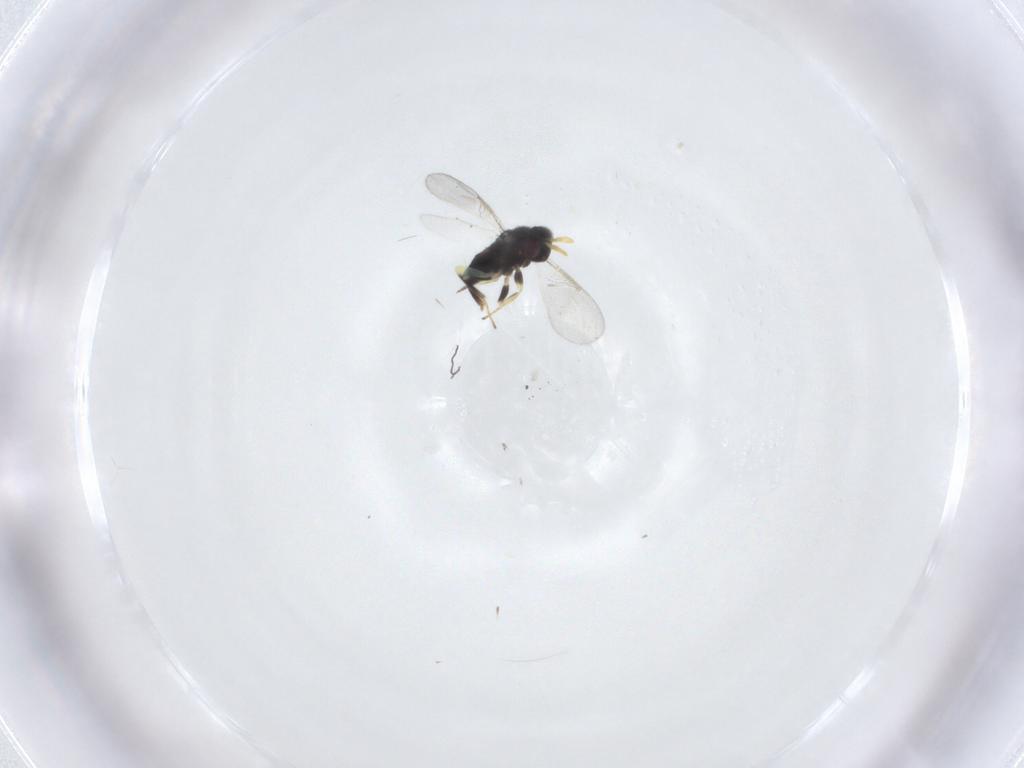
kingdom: Animalia
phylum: Arthropoda
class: Insecta
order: Hymenoptera
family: Aphelinidae
